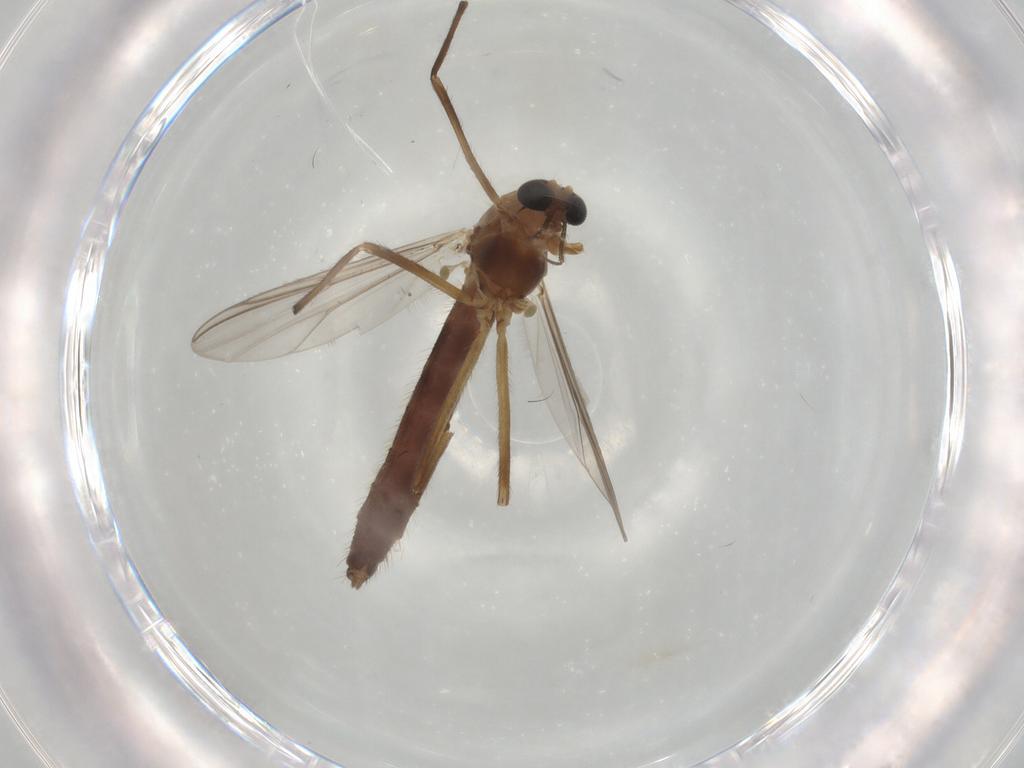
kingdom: Animalia
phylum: Arthropoda
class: Insecta
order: Diptera
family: Chironomidae
